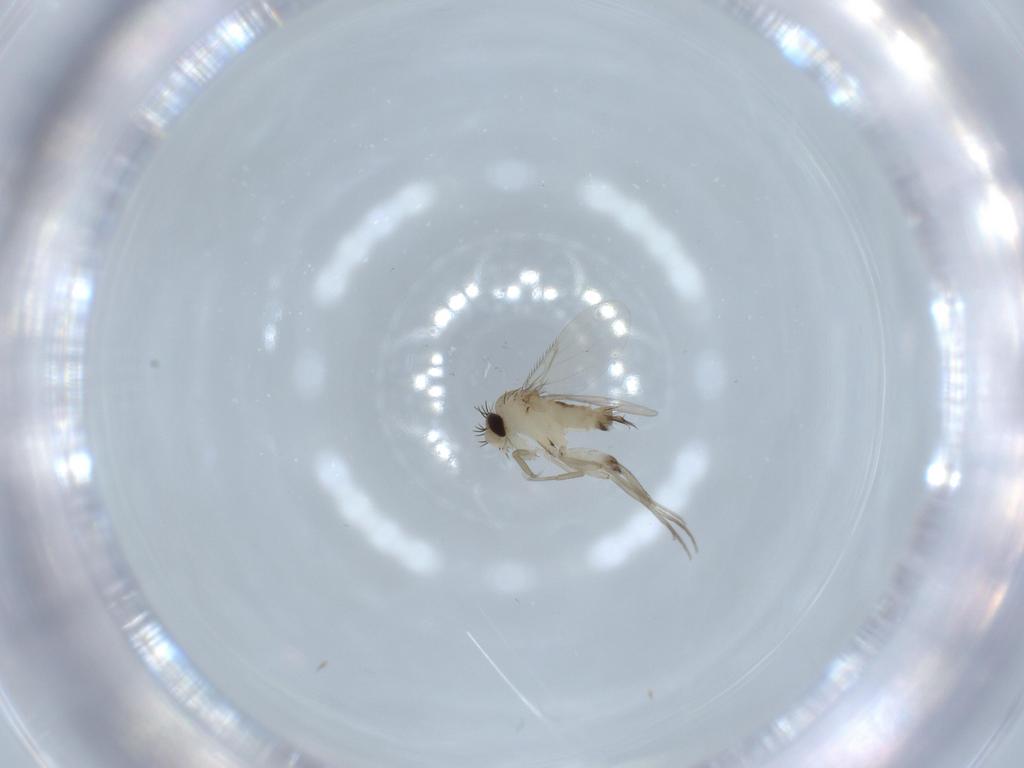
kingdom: Animalia
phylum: Arthropoda
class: Insecta
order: Diptera
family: Phoridae
